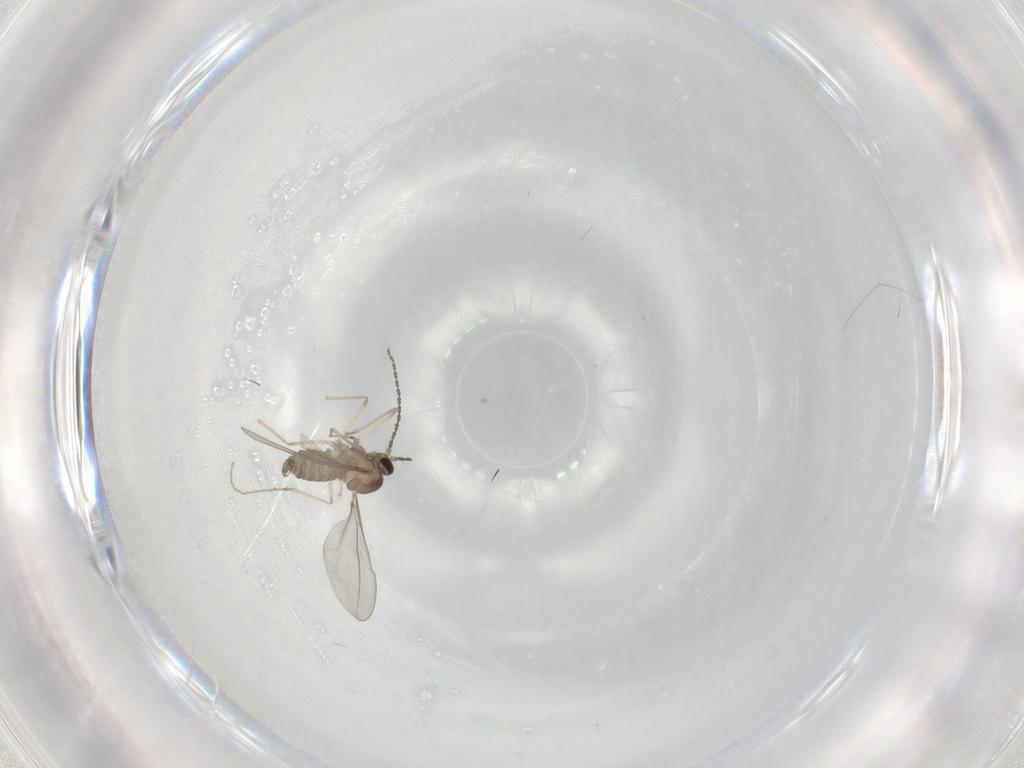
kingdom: Animalia
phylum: Arthropoda
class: Insecta
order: Diptera
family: Cecidomyiidae
